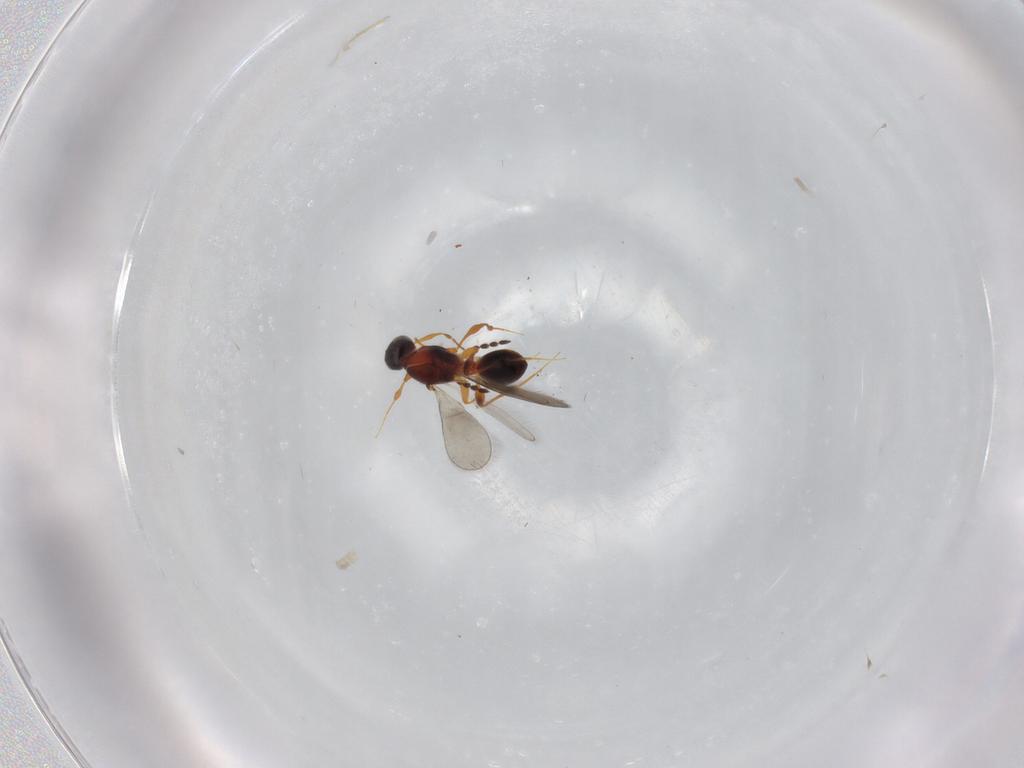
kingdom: Animalia
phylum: Arthropoda
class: Insecta
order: Hymenoptera
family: Platygastridae
